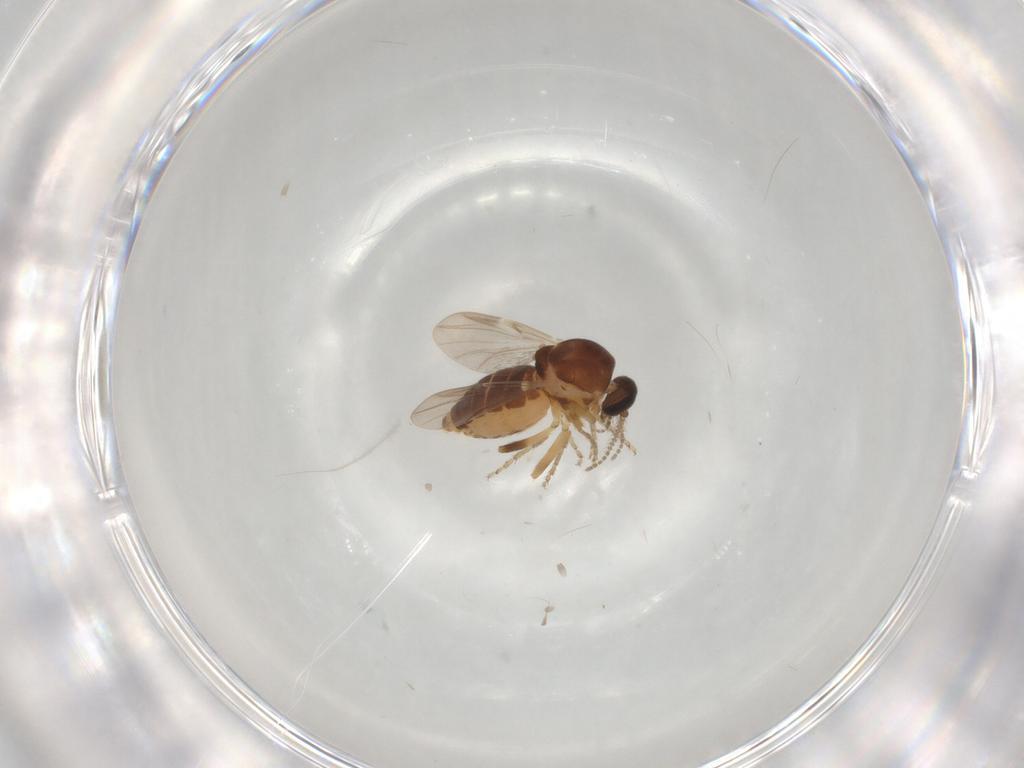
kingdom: Animalia
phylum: Arthropoda
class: Insecta
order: Diptera
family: Ceratopogonidae
